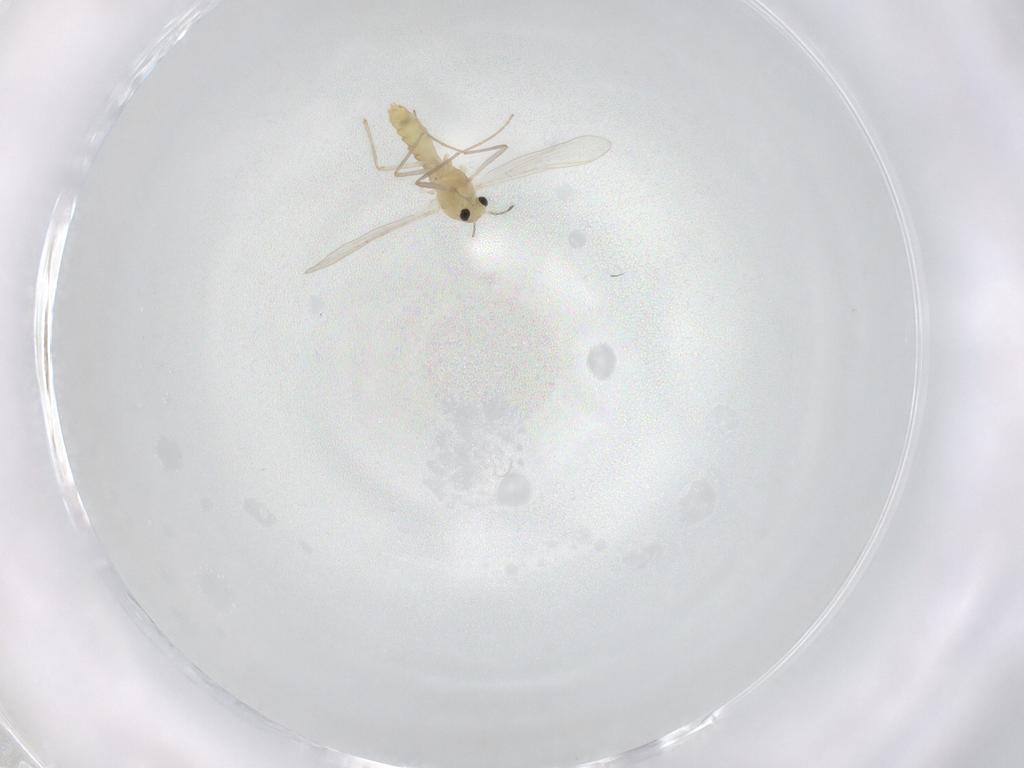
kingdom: Animalia
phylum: Arthropoda
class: Insecta
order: Diptera
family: Chironomidae
